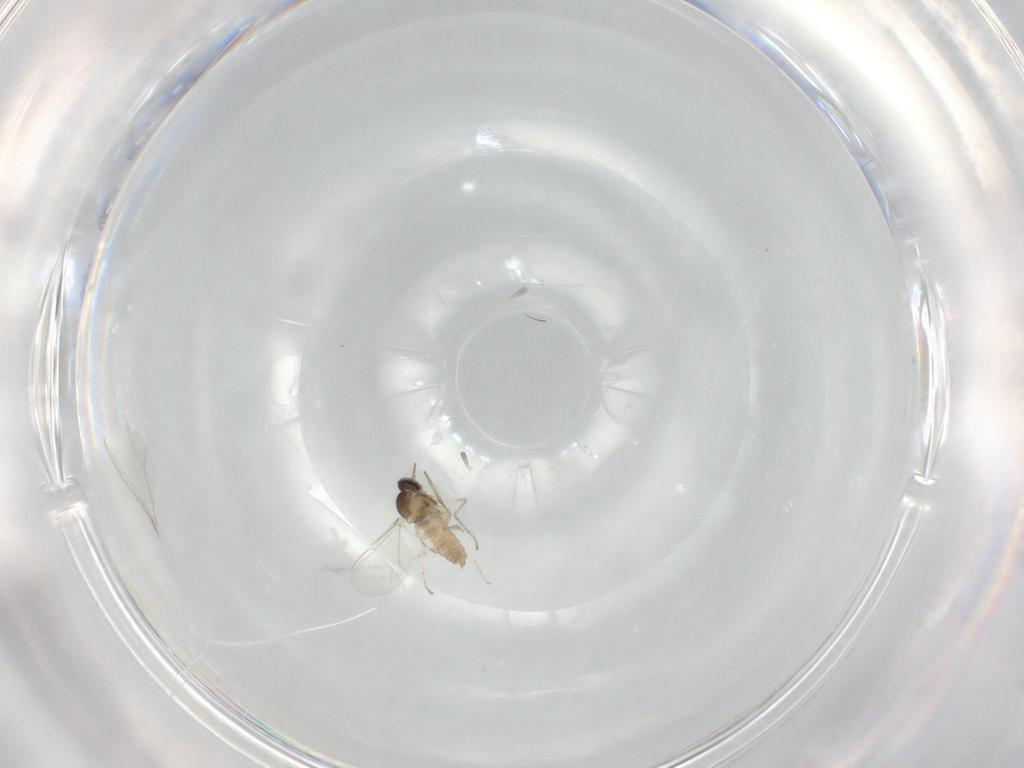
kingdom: Animalia
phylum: Arthropoda
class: Insecta
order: Diptera
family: Cecidomyiidae
